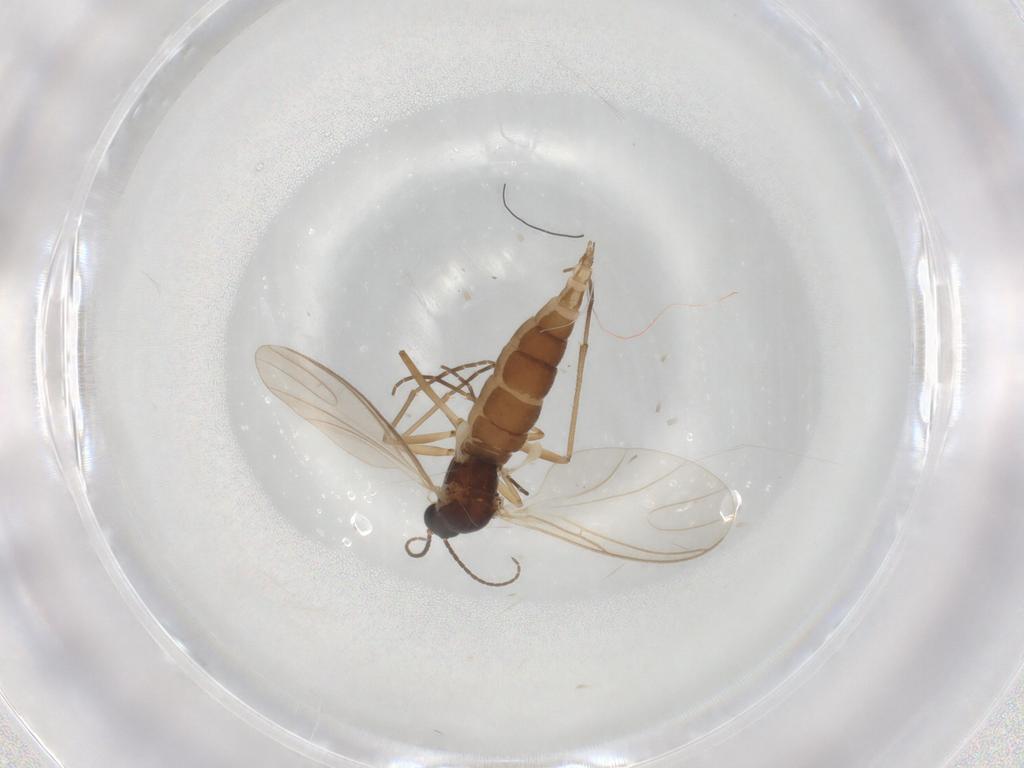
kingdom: Animalia
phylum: Arthropoda
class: Insecta
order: Diptera
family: Sciaridae
